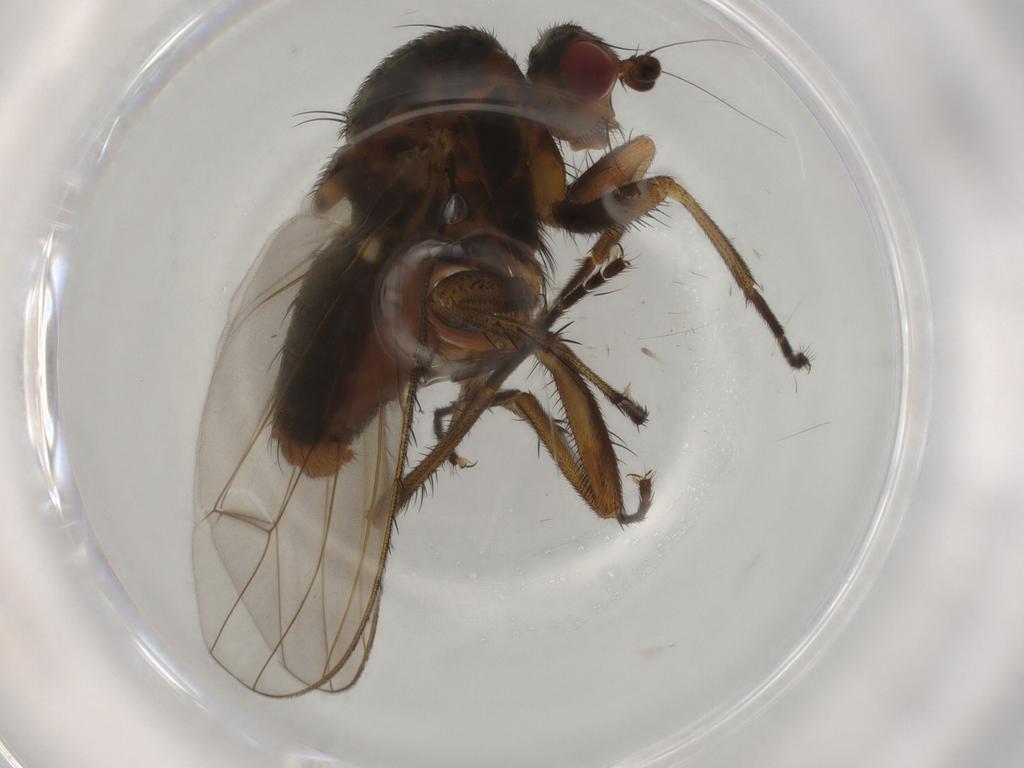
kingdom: Animalia
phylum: Arthropoda
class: Insecta
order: Diptera
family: Heleomyzidae
